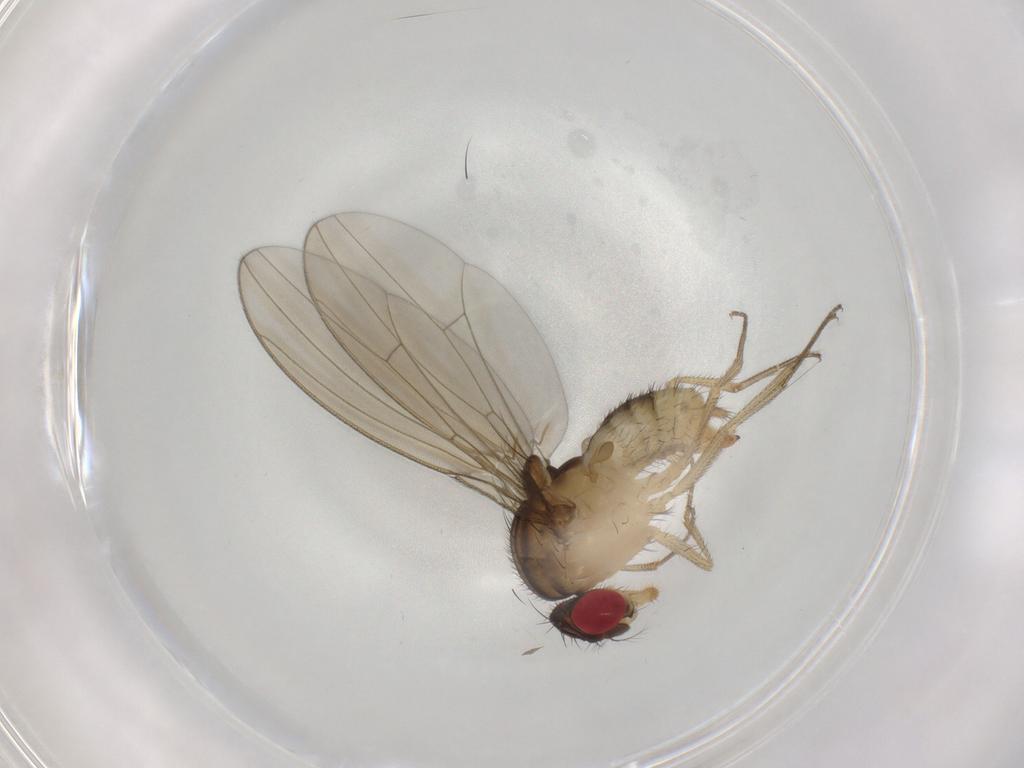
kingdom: Animalia
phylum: Arthropoda
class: Insecta
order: Diptera
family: Drosophilidae
